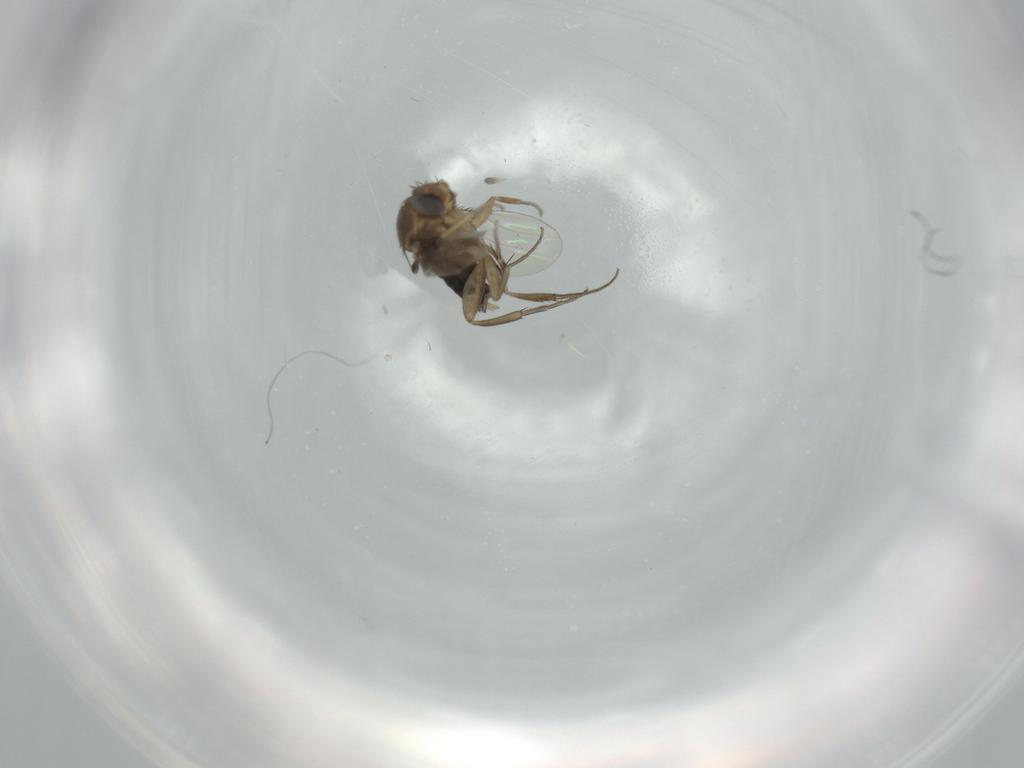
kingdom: Animalia
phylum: Arthropoda
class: Insecta
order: Diptera
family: Phoridae
